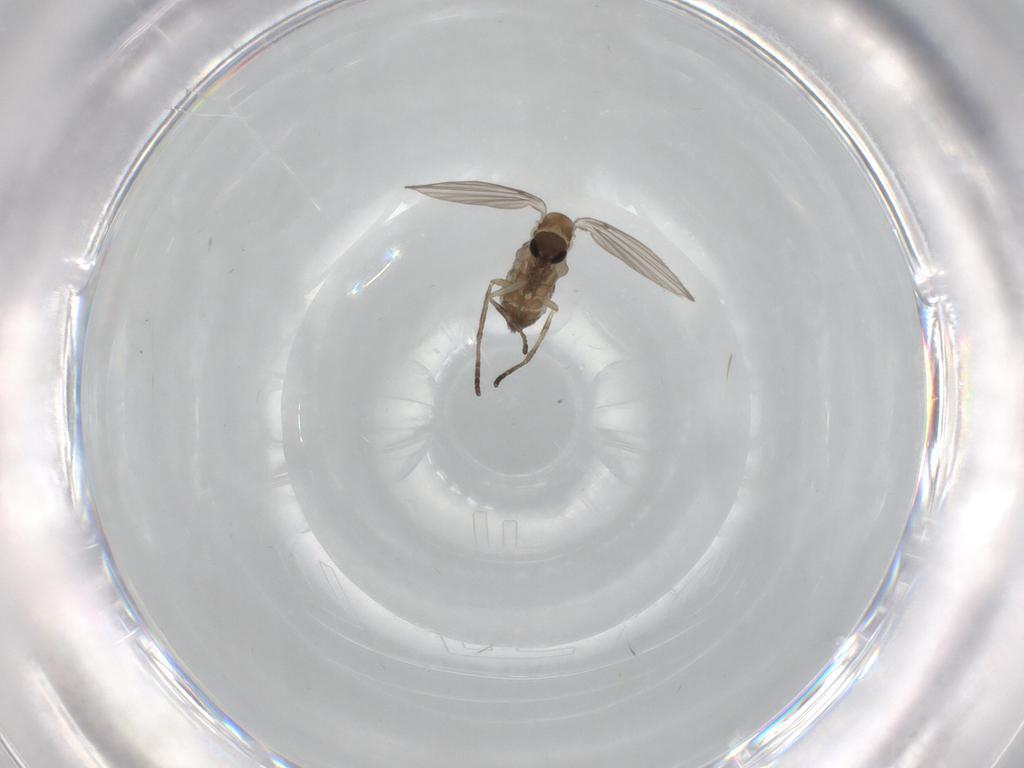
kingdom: Animalia
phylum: Arthropoda
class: Insecta
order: Diptera
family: Psychodidae
